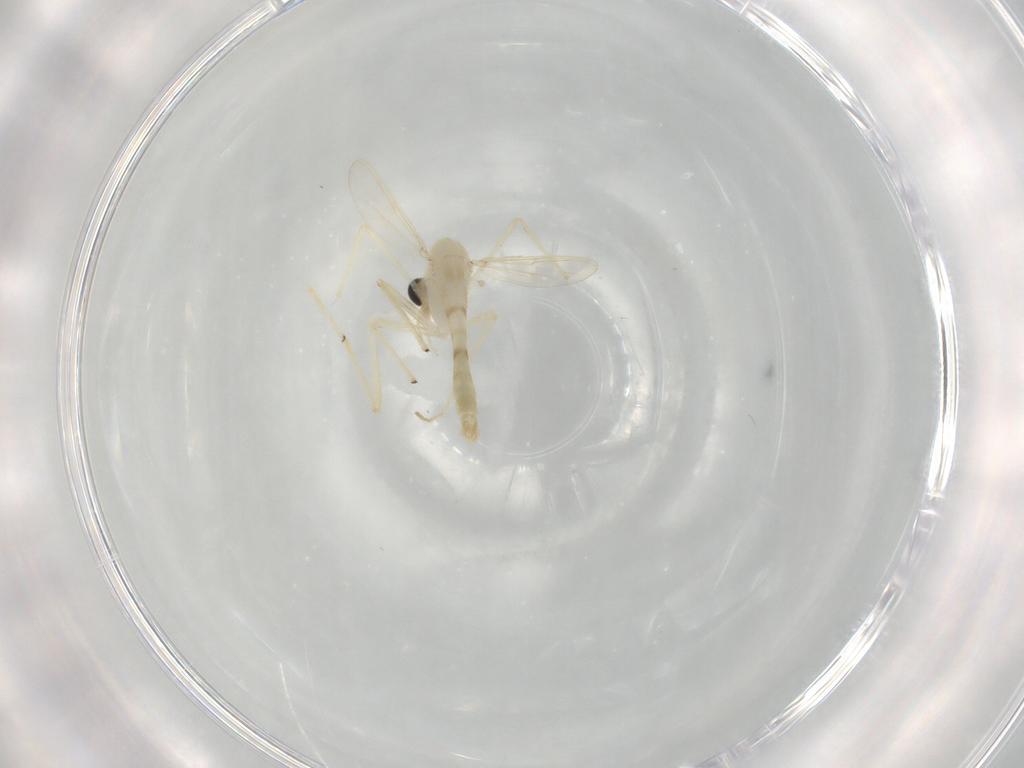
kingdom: Animalia
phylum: Arthropoda
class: Insecta
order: Diptera
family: Chironomidae
